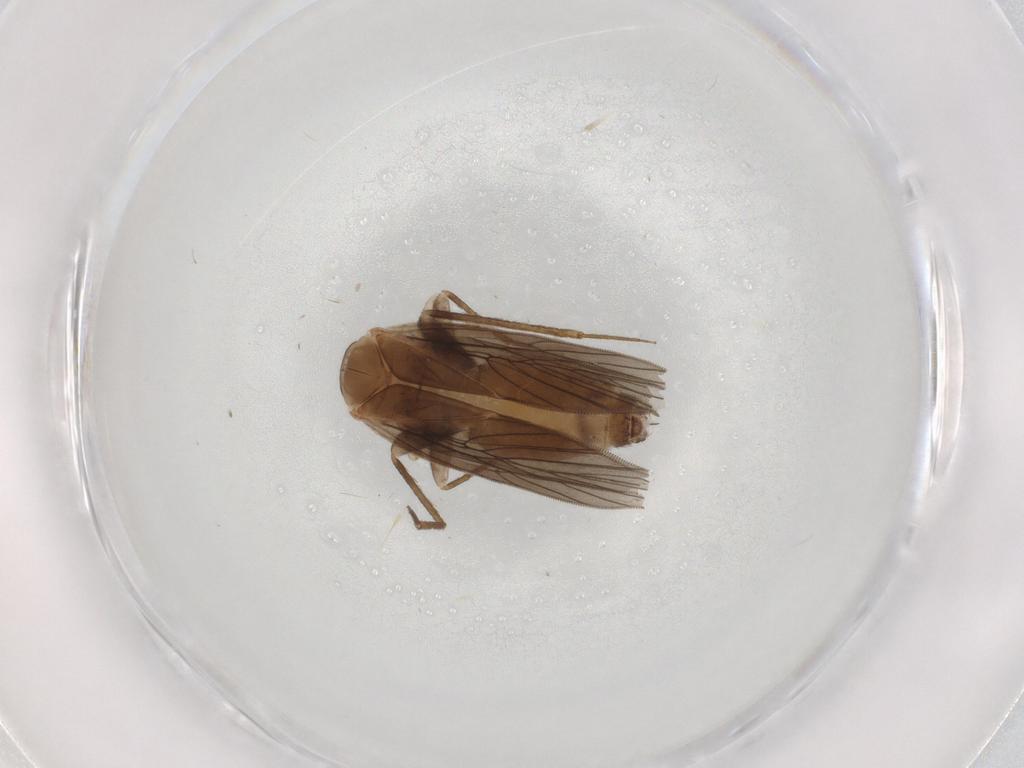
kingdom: Animalia
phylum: Arthropoda
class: Insecta
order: Psocodea
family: Lepidopsocidae
